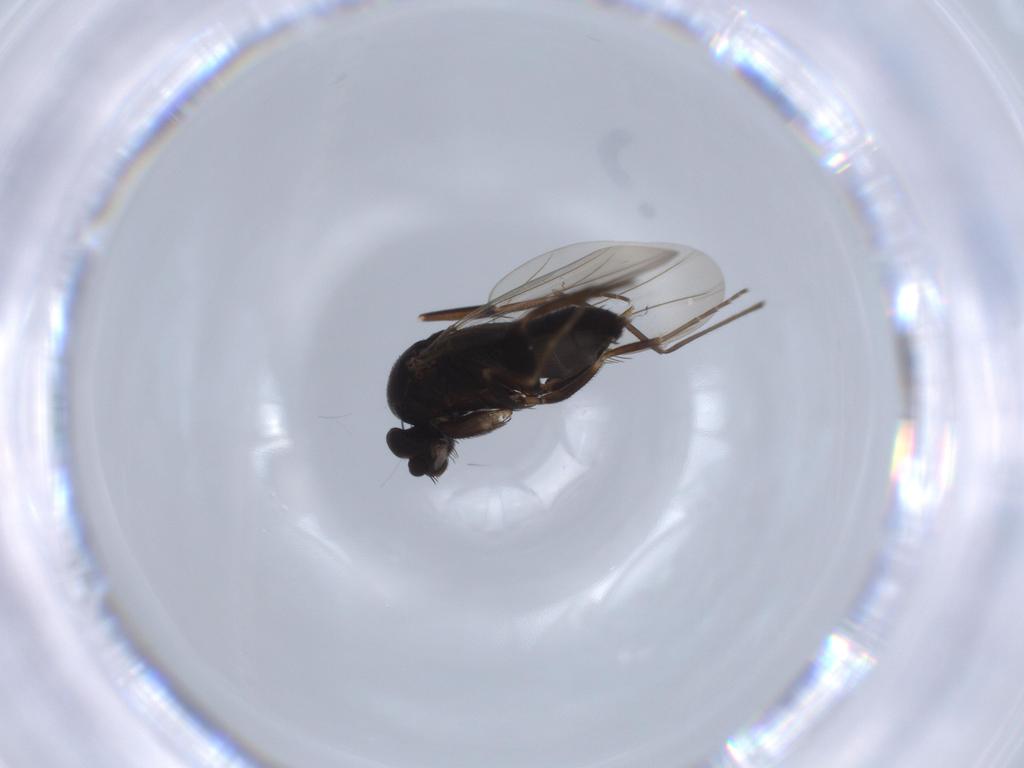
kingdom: Animalia
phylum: Arthropoda
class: Insecta
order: Diptera
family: Phoridae
